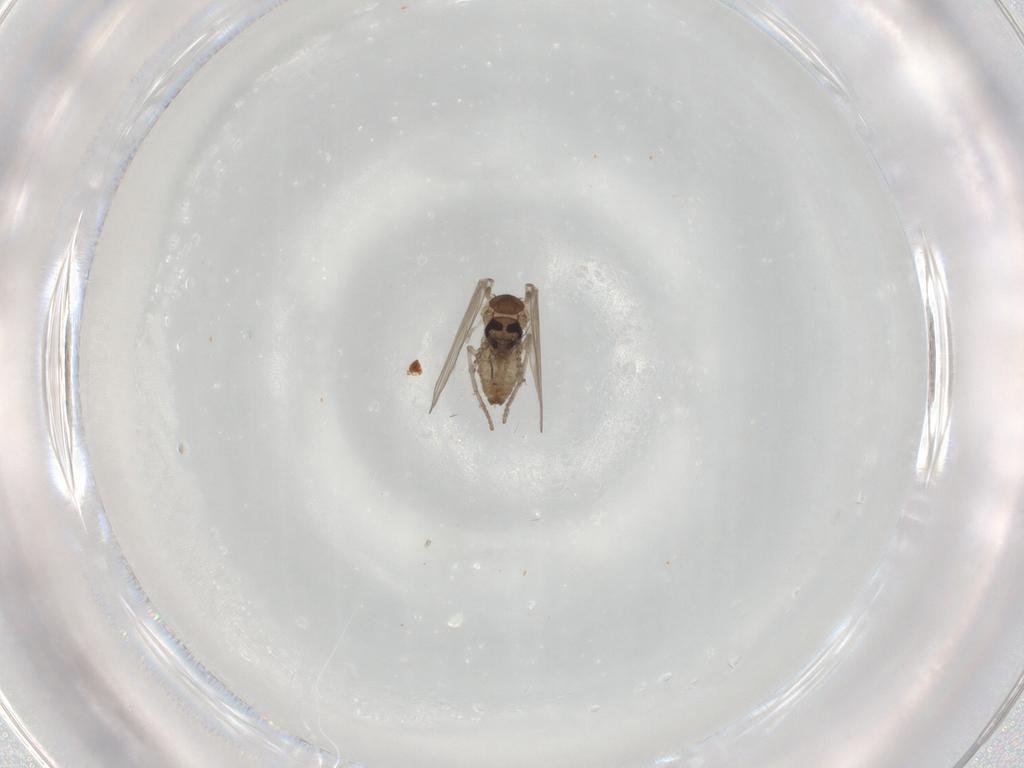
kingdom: Animalia
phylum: Arthropoda
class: Insecta
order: Diptera
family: Psychodidae
